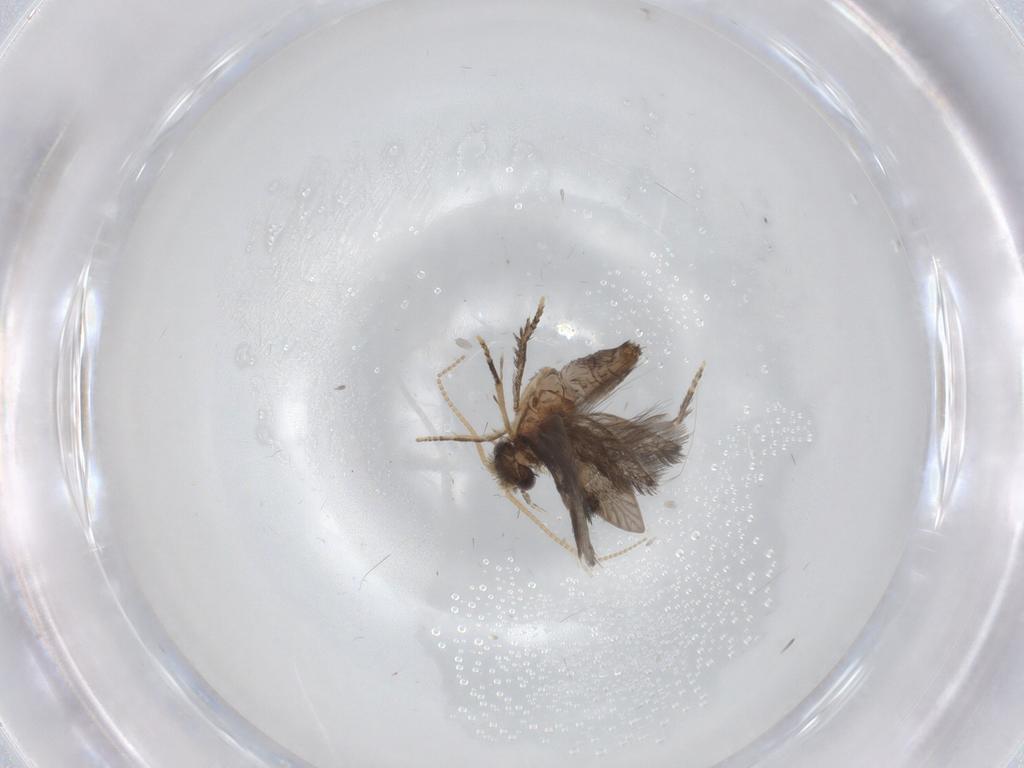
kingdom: Animalia
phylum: Arthropoda
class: Insecta
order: Trichoptera
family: Hydroptilidae
